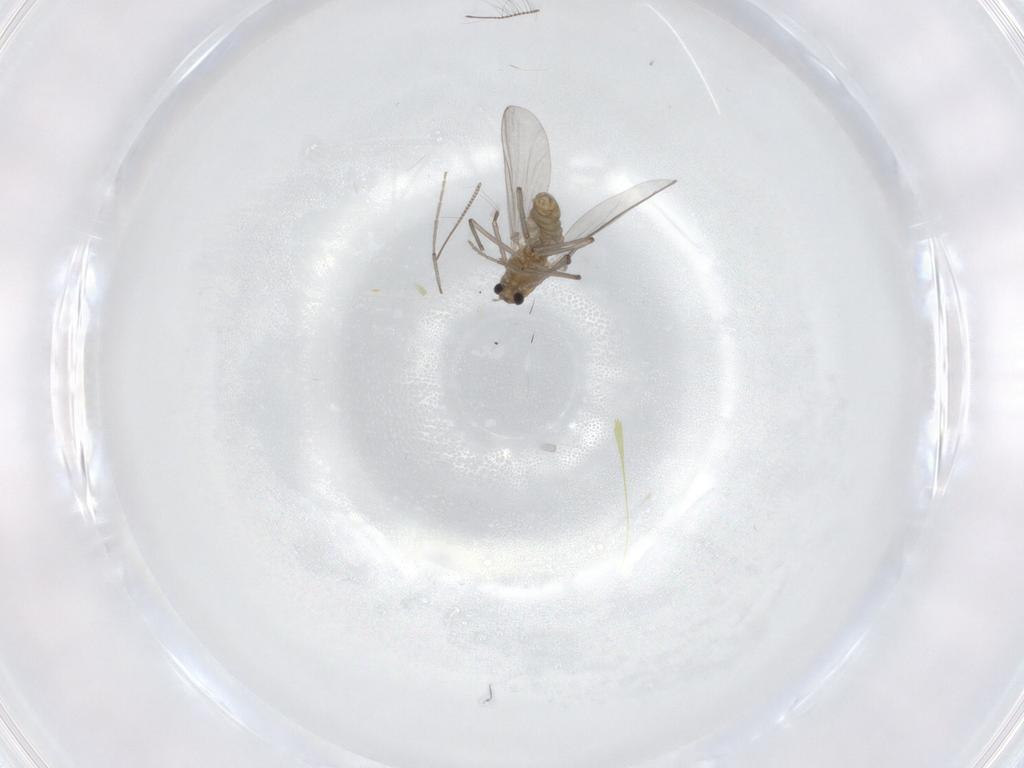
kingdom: Animalia
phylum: Arthropoda
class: Insecta
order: Diptera
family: Chironomidae
